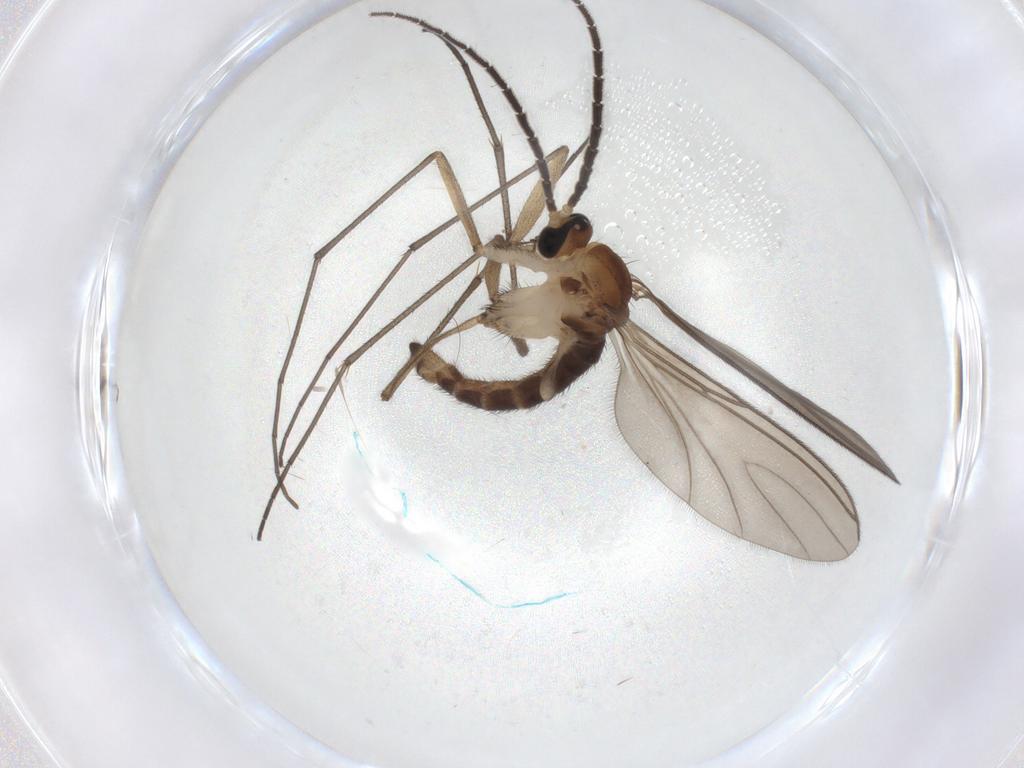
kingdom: Animalia
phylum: Arthropoda
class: Insecta
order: Diptera
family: Sciaridae
